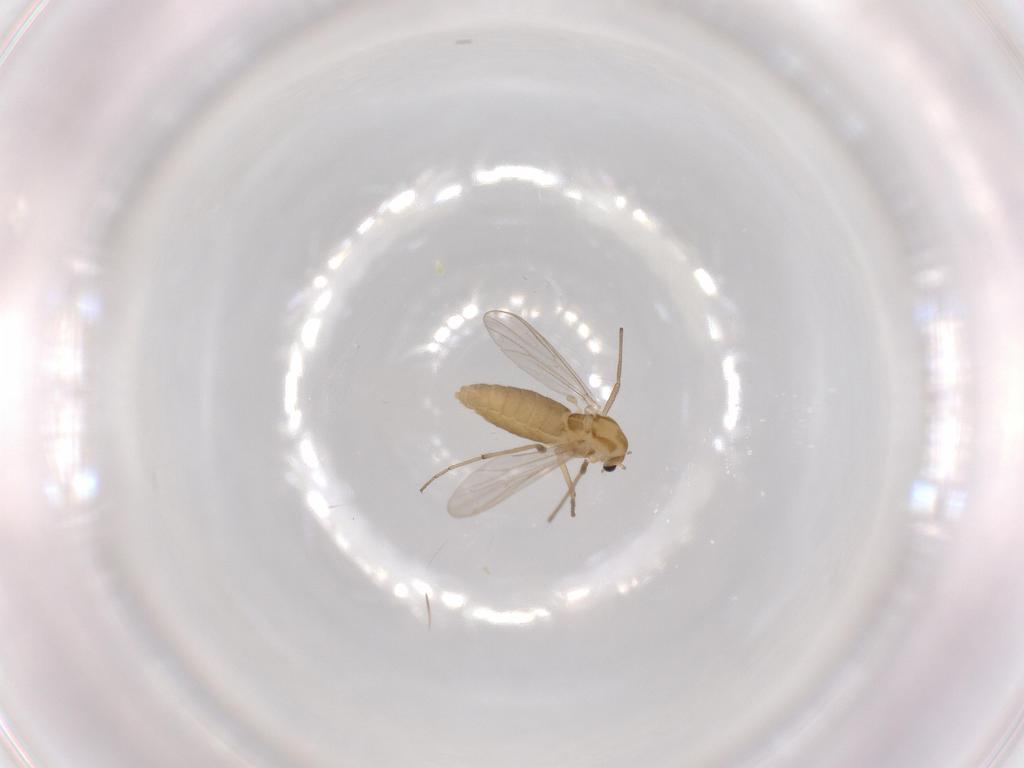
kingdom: Animalia
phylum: Arthropoda
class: Insecta
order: Diptera
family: Chironomidae
